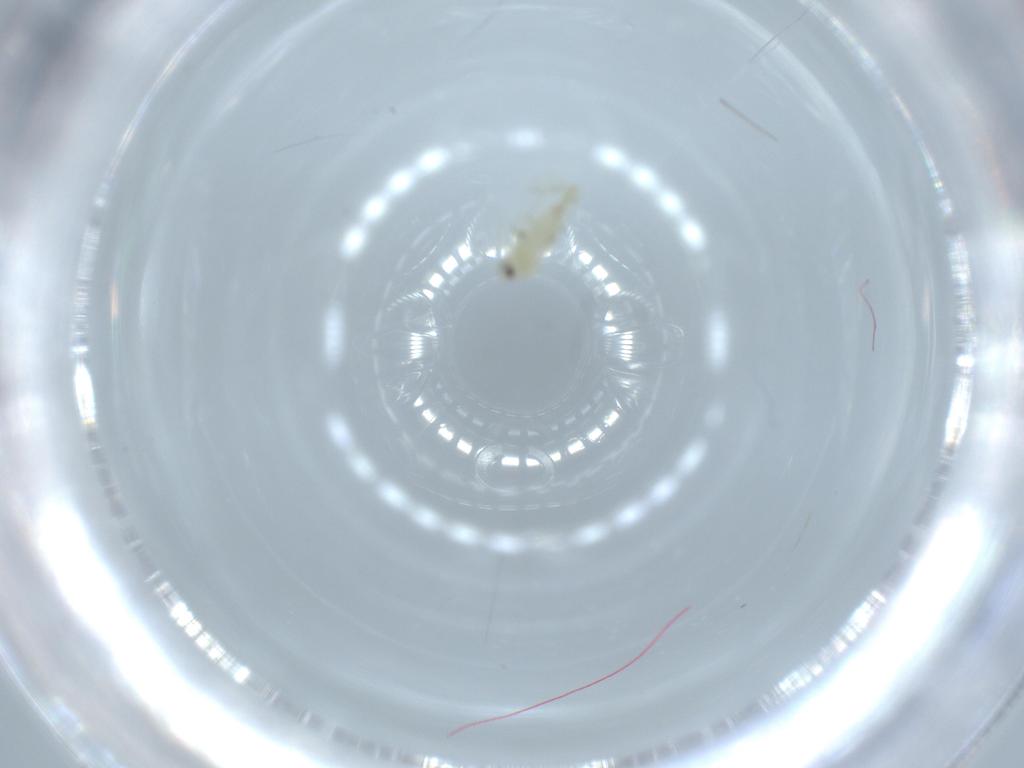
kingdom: Animalia
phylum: Arthropoda
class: Insecta
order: Hemiptera
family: Aleyrodidae
